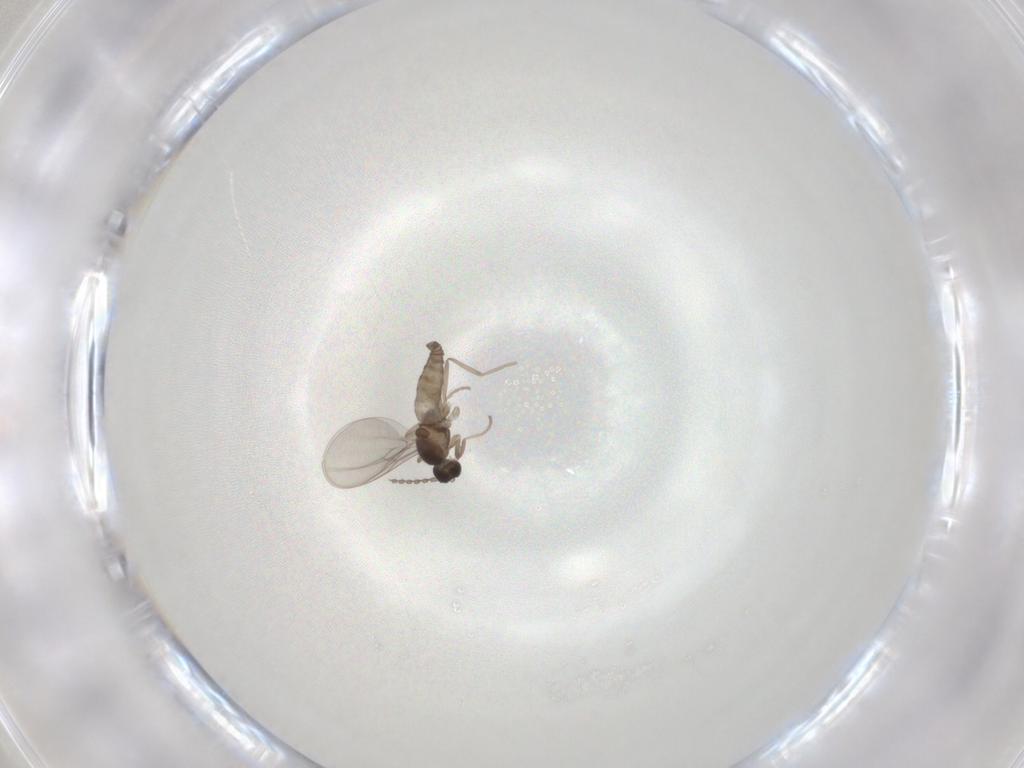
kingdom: Animalia
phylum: Arthropoda
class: Insecta
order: Diptera
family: Cecidomyiidae
